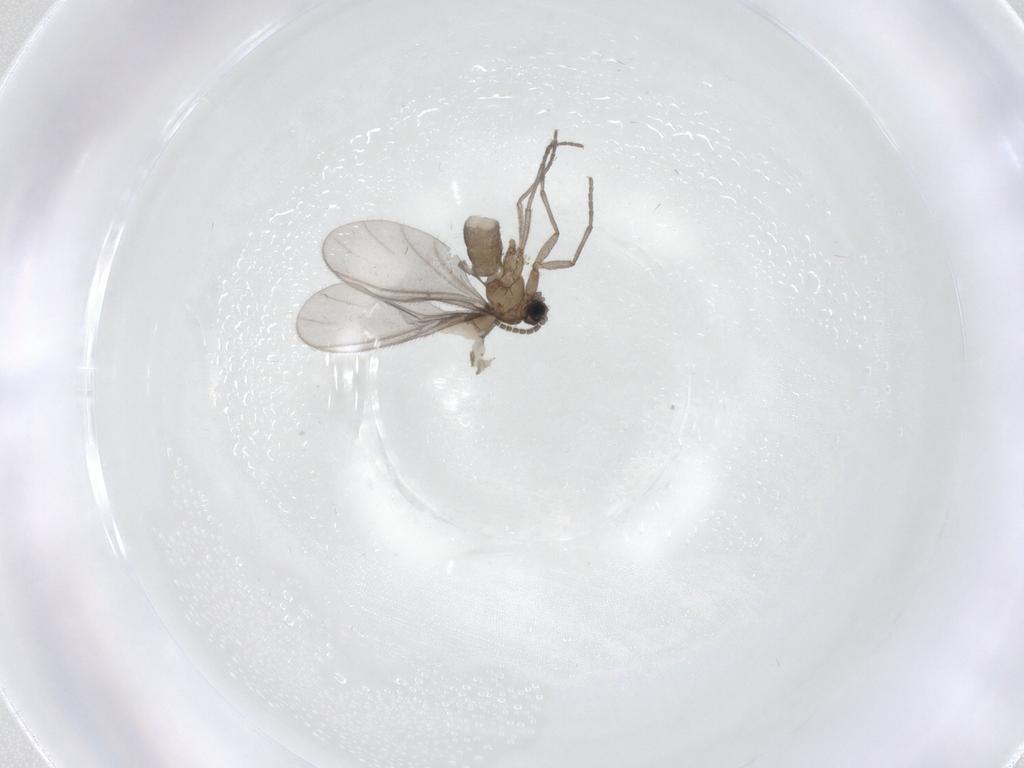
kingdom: Animalia
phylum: Arthropoda
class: Insecta
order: Diptera
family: Sciaridae
